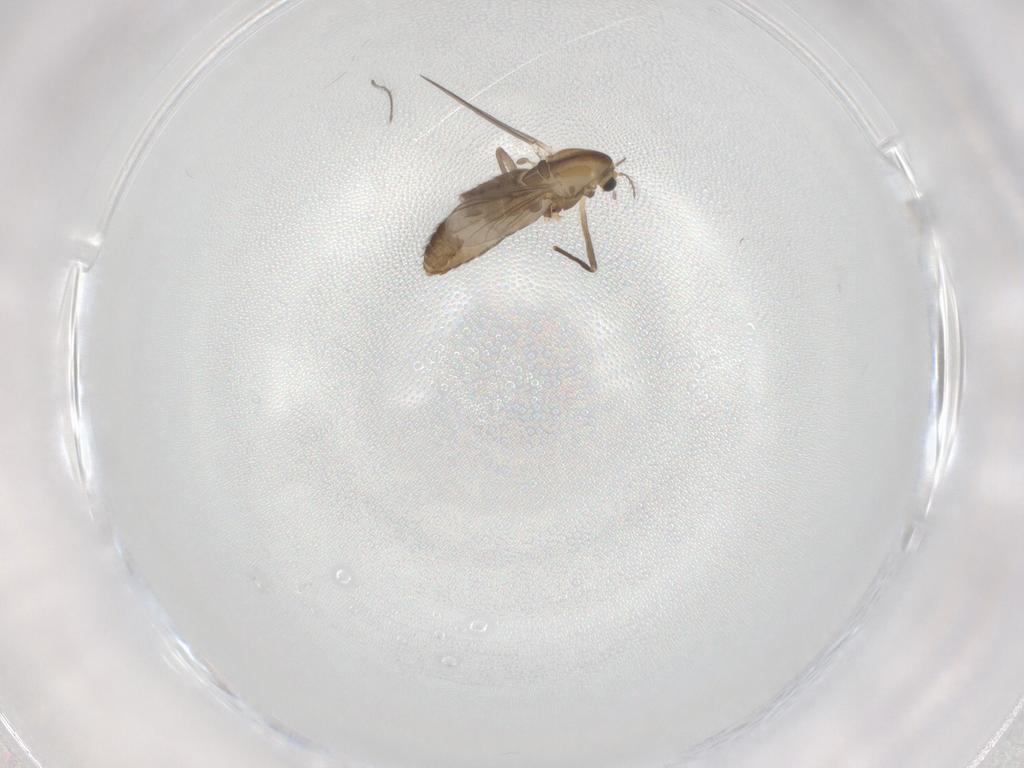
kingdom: Animalia
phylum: Arthropoda
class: Insecta
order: Diptera
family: Chironomidae
